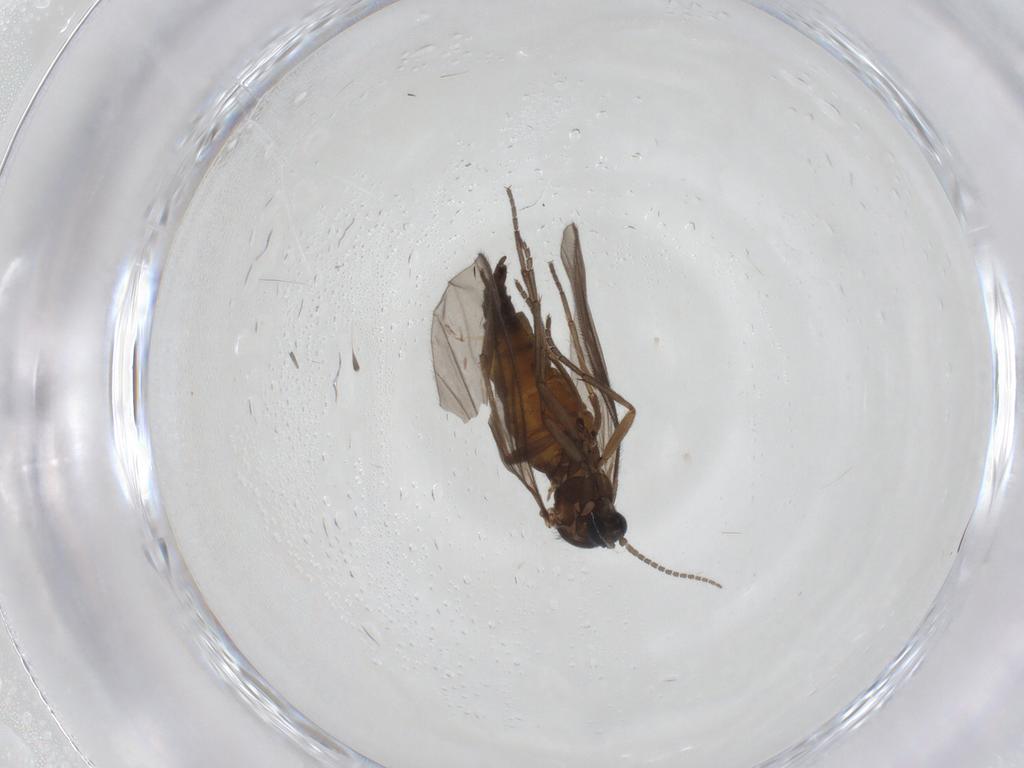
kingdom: Animalia
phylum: Arthropoda
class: Insecta
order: Diptera
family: Sciaridae
